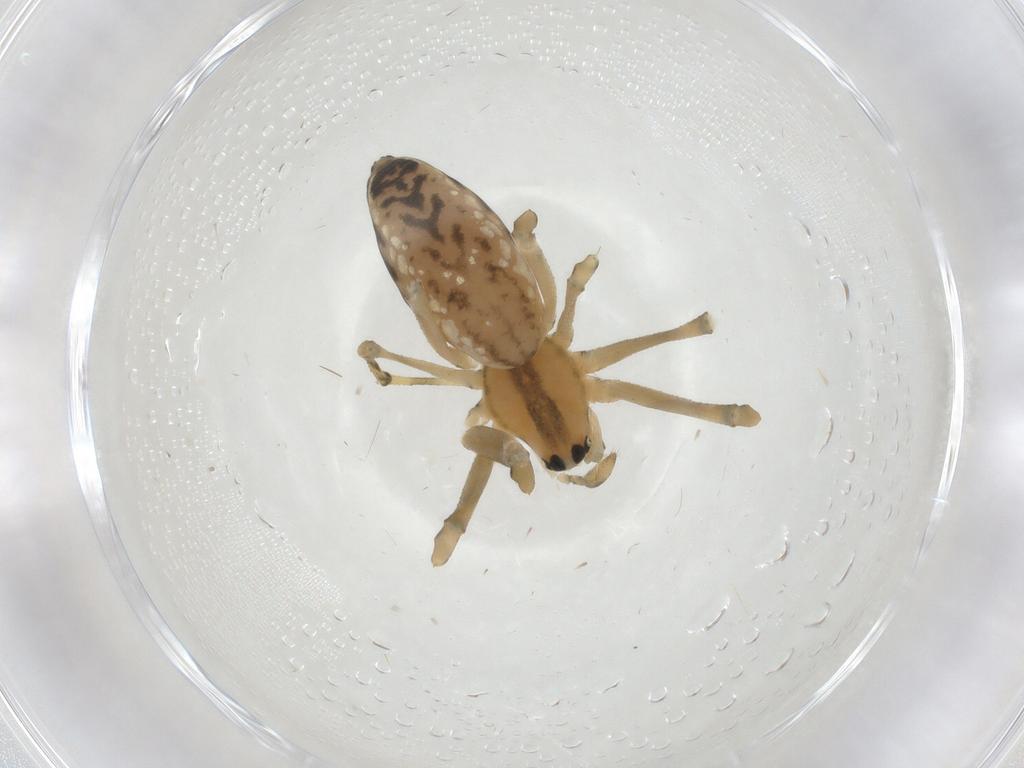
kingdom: Animalia
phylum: Arthropoda
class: Arachnida
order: Araneae
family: Linyphiidae
